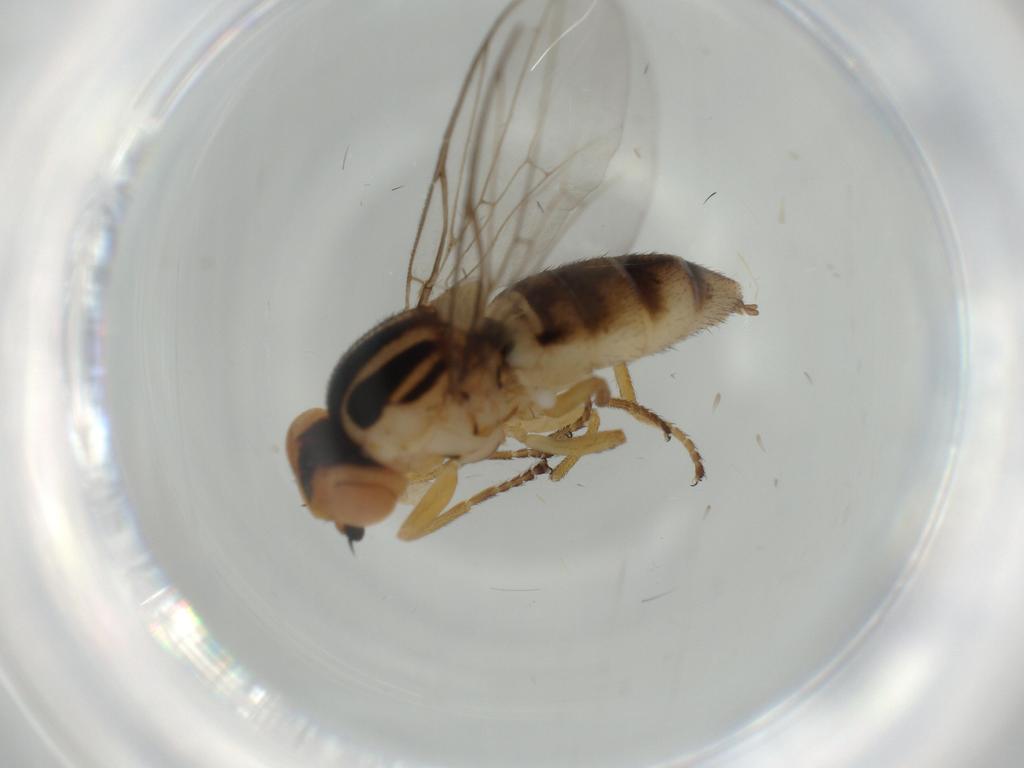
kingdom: Animalia
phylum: Arthropoda
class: Insecta
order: Diptera
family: Chloropidae
